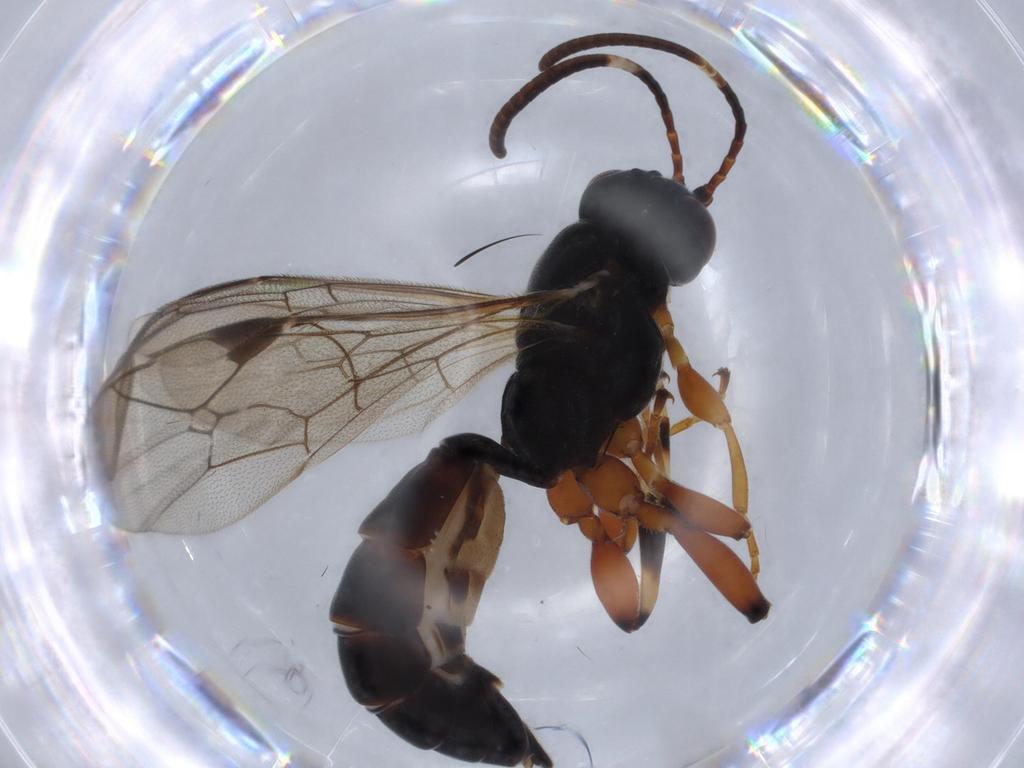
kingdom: Animalia
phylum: Arthropoda
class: Insecta
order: Hymenoptera
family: Ichneumonidae
